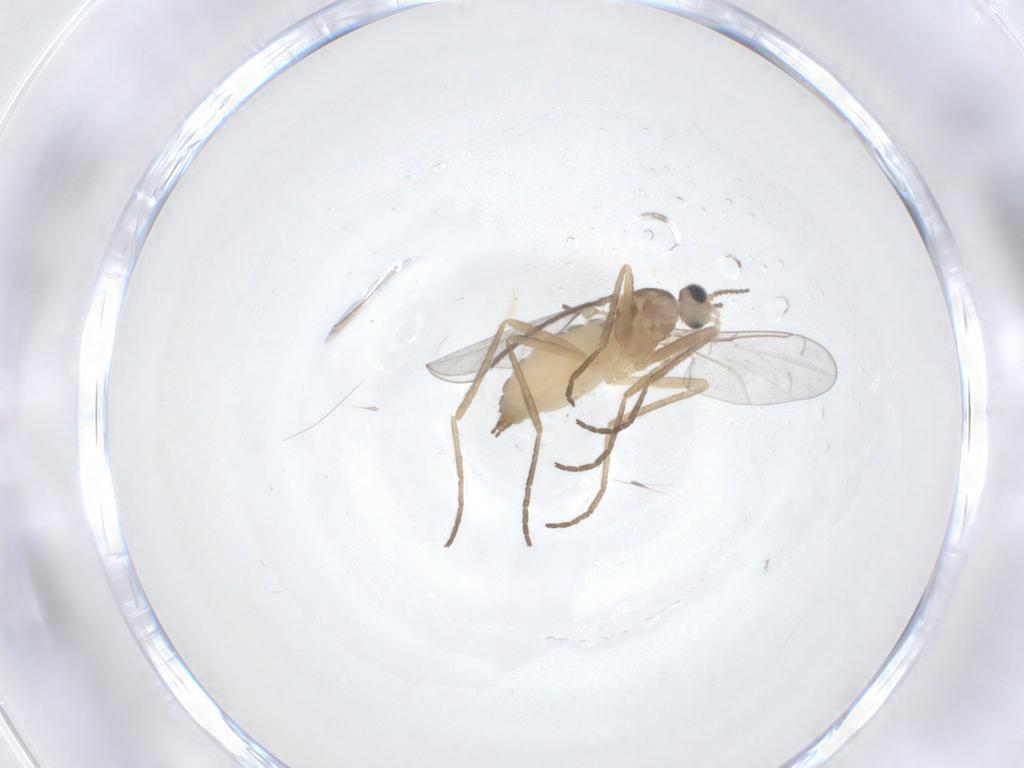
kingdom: Animalia
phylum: Arthropoda
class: Insecta
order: Diptera
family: Cecidomyiidae
